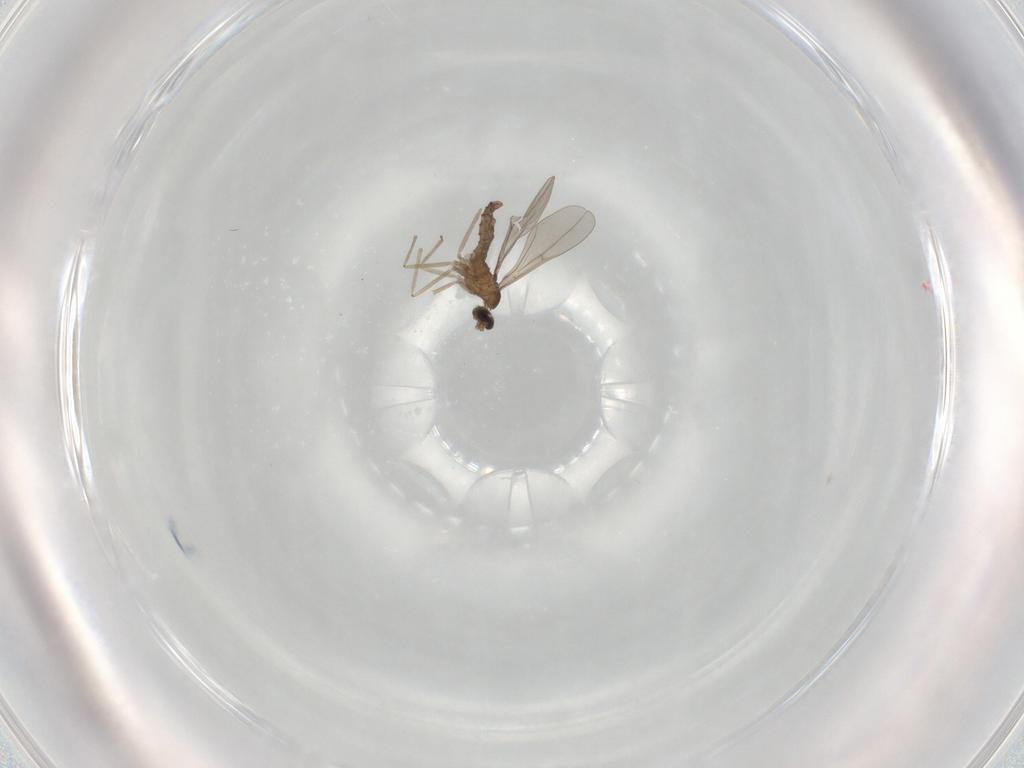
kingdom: Animalia
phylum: Arthropoda
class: Insecta
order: Diptera
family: Cecidomyiidae
